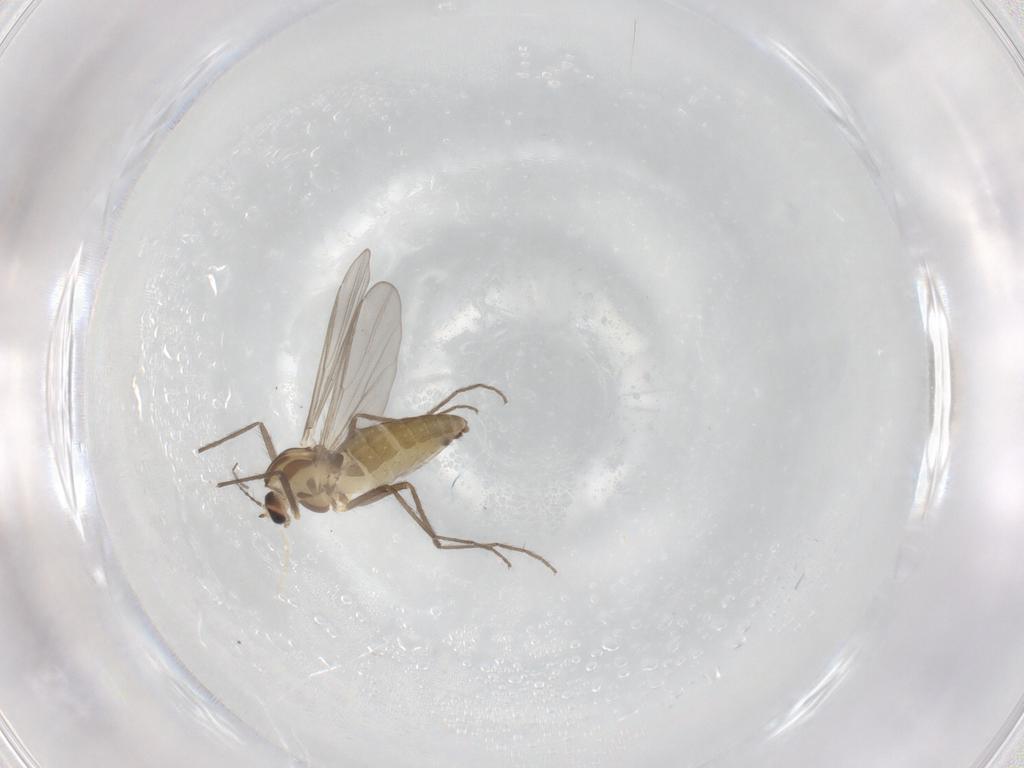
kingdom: Animalia
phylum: Arthropoda
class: Insecta
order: Diptera
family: Chironomidae
